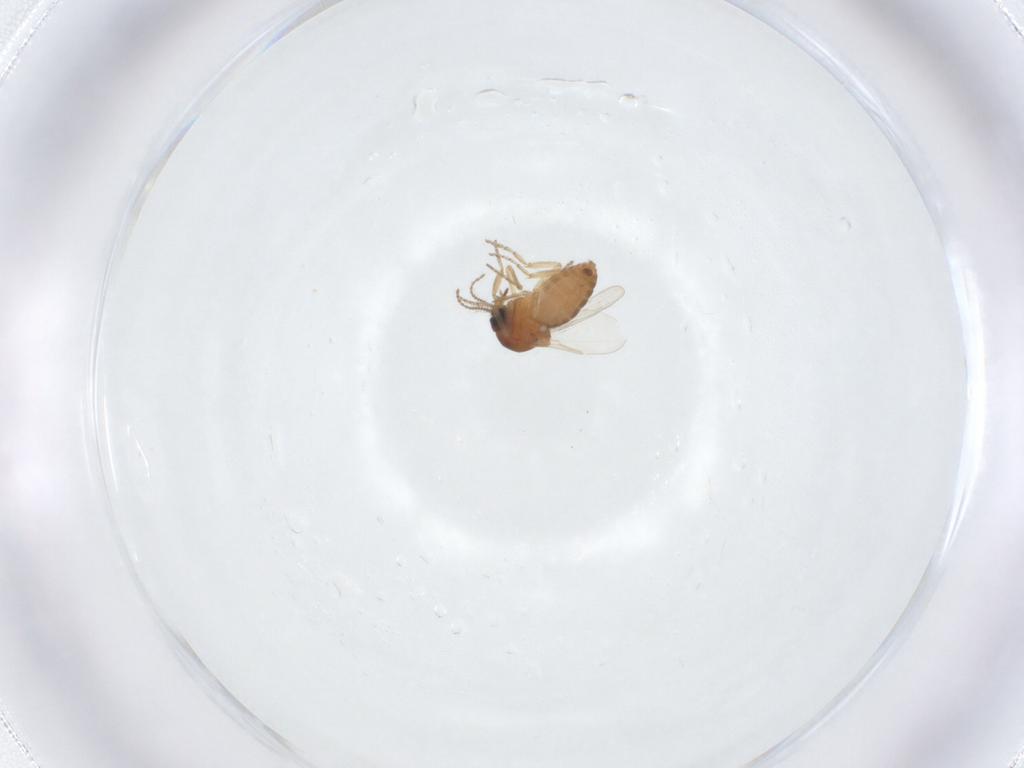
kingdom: Animalia
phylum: Arthropoda
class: Insecta
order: Diptera
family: Ceratopogonidae
